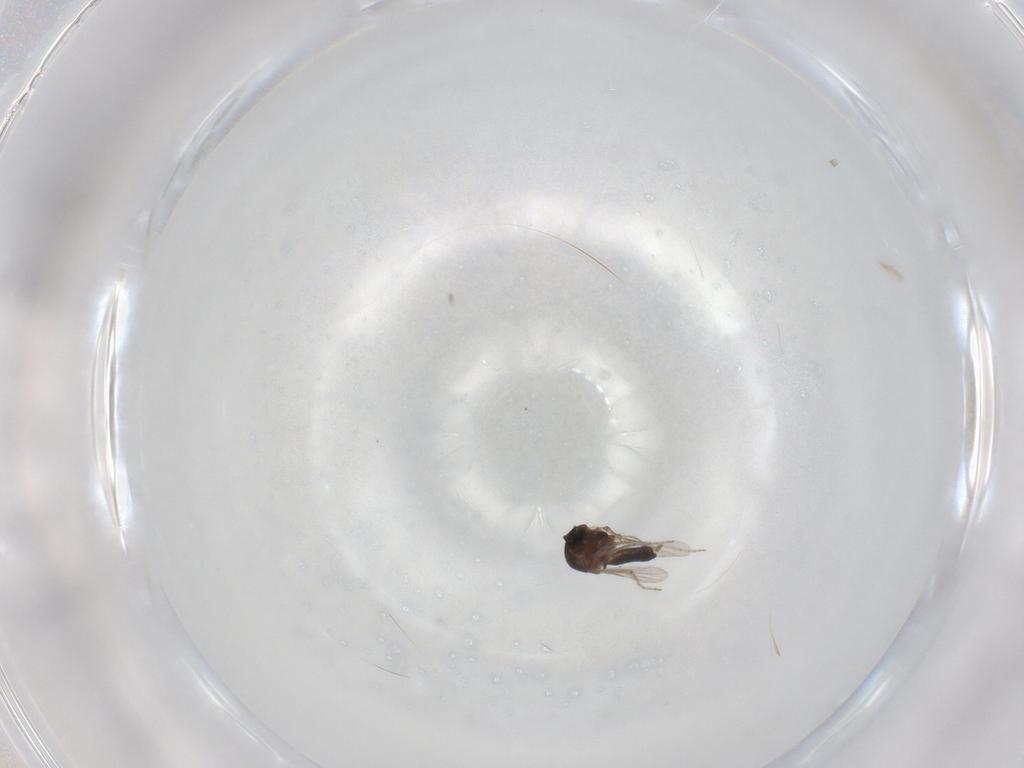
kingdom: Animalia
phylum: Arthropoda
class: Insecta
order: Diptera
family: Ceratopogonidae
